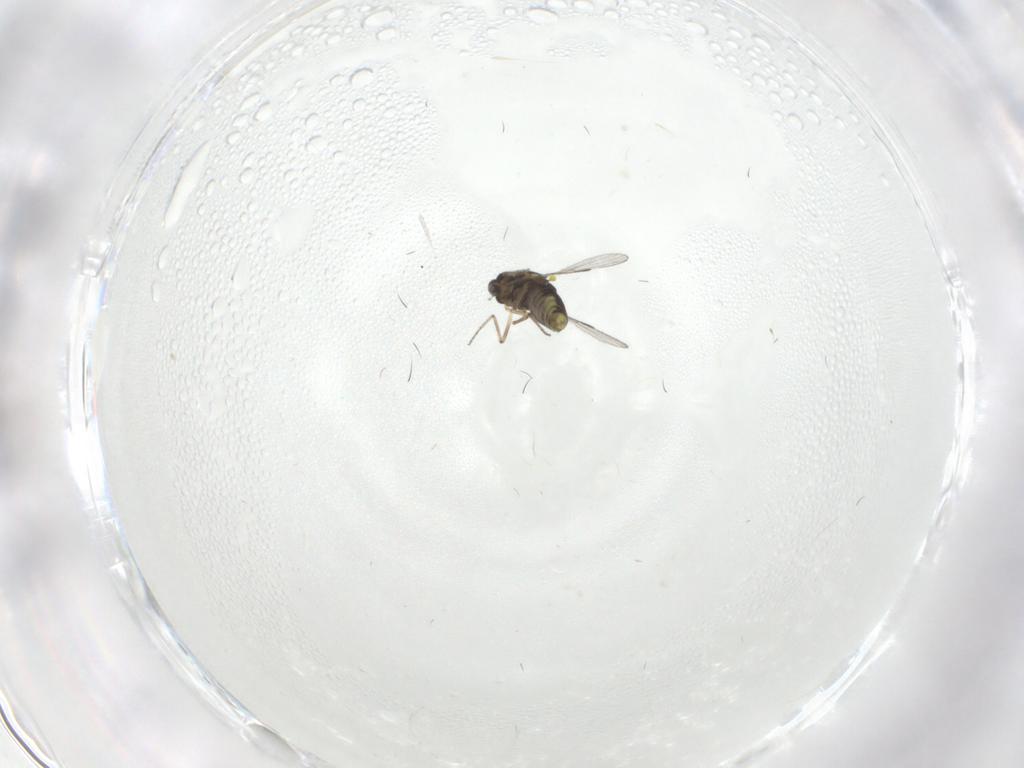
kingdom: Animalia
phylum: Arthropoda
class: Insecta
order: Diptera
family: Ceratopogonidae
